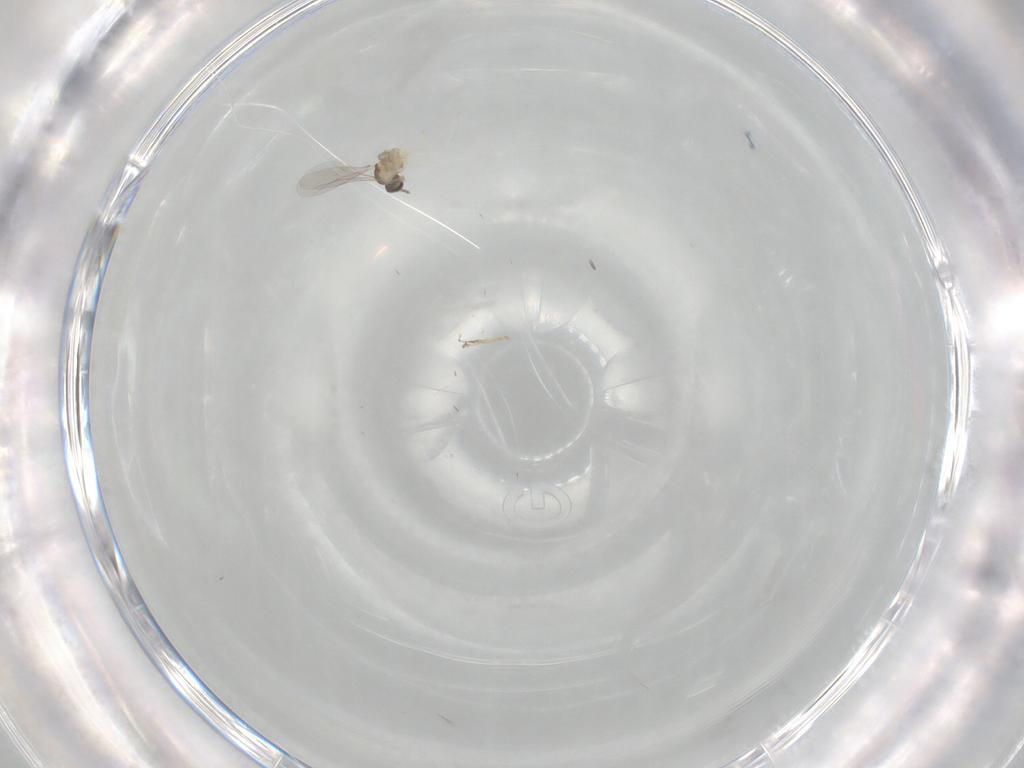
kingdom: Animalia
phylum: Arthropoda
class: Insecta
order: Diptera
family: Cecidomyiidae
